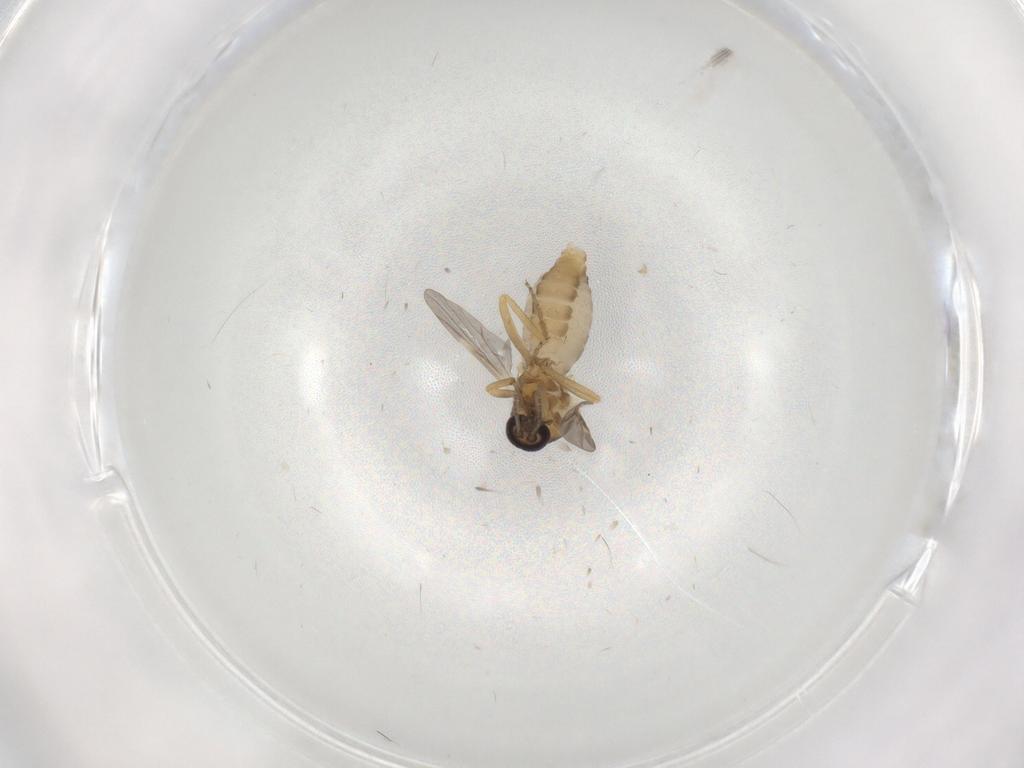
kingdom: Animalia
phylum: Arthropoda
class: Insecta
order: Diptera
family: Ceratopogonidae
